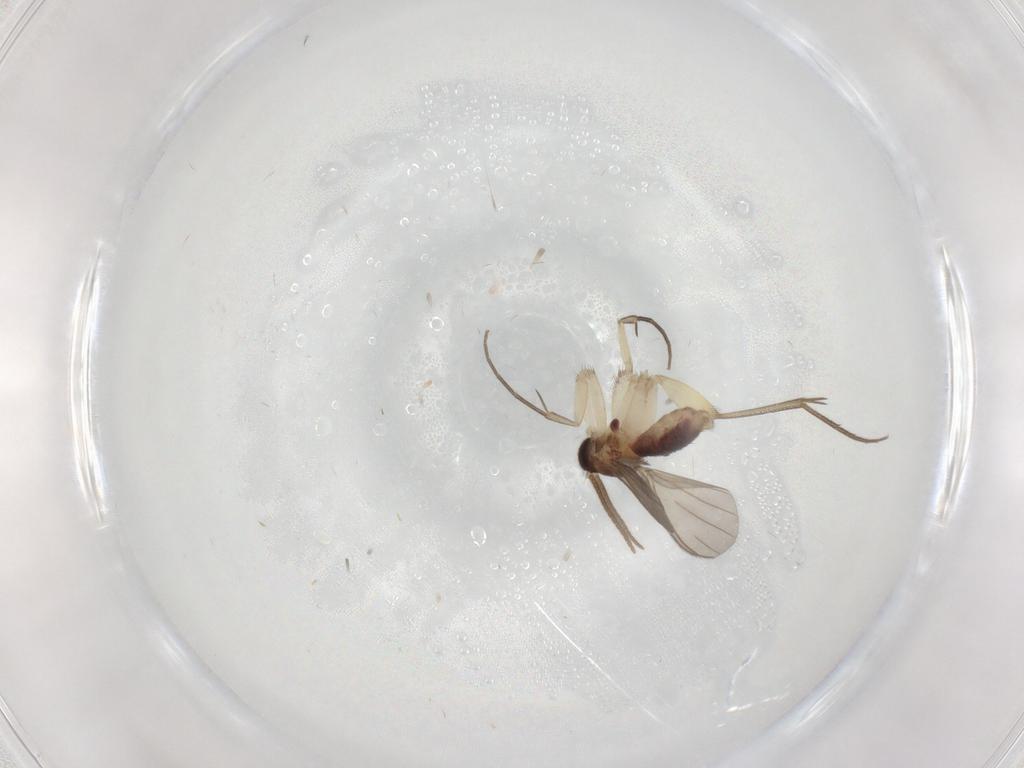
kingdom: Animalia
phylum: Arthropoda
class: Insecta
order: Diptera
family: Mycetophilidae
